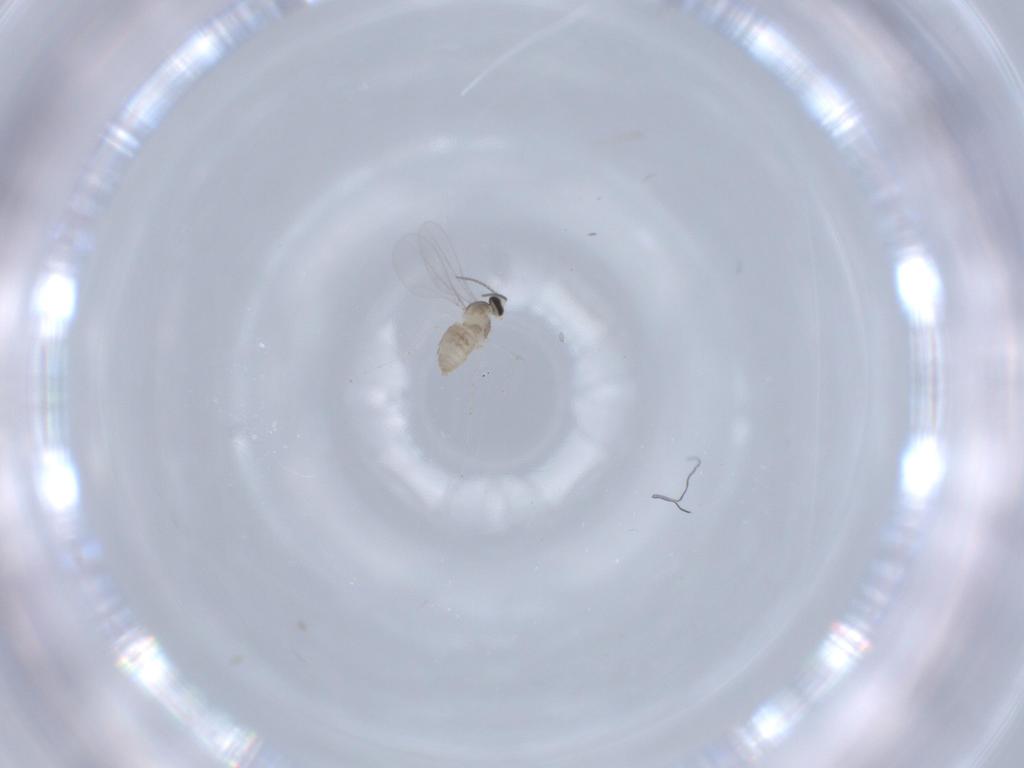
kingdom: Animalia
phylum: Arthropoda
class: Insecta
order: Diptera
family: Cecidomyiidae
